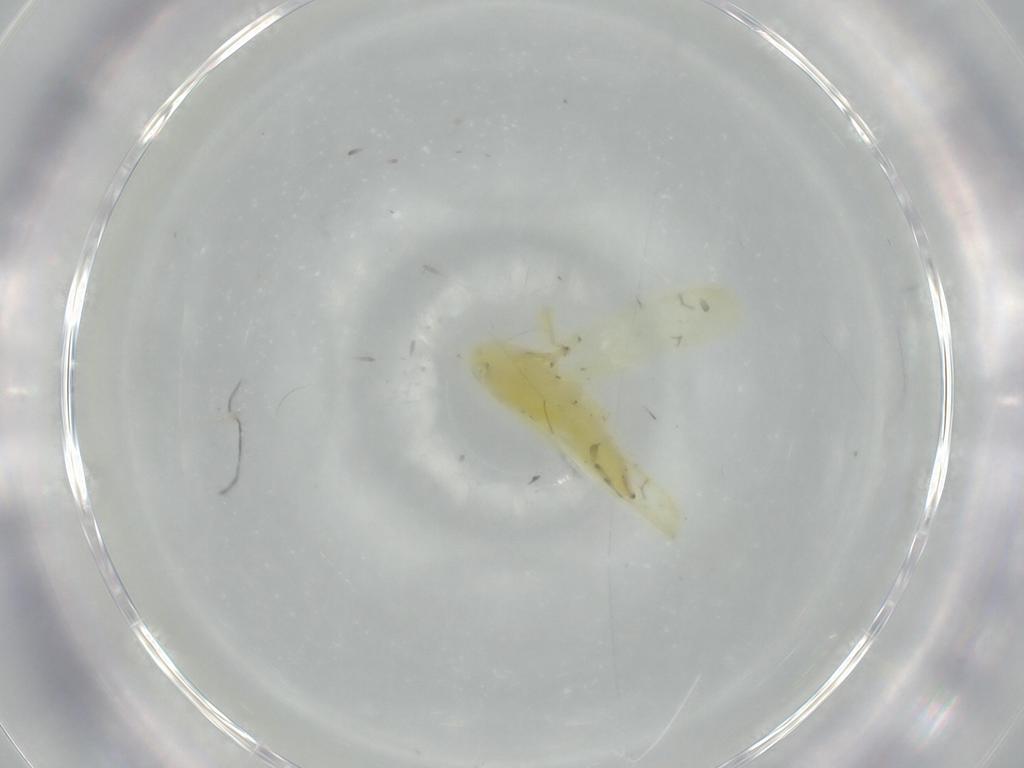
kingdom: Animalia
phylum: Arthropoda
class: Insecta
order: Hemiptera
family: Cicadellidae
